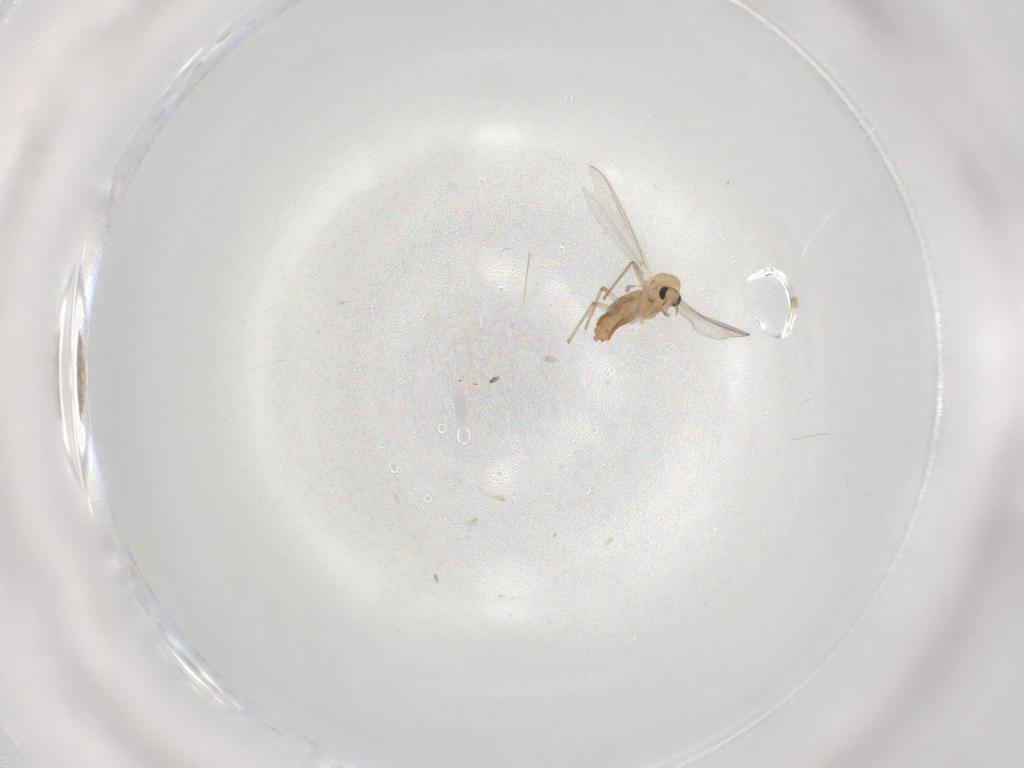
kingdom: Animalia
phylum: Arthropoda
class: Insecta
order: Diptera
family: Chironomidae
